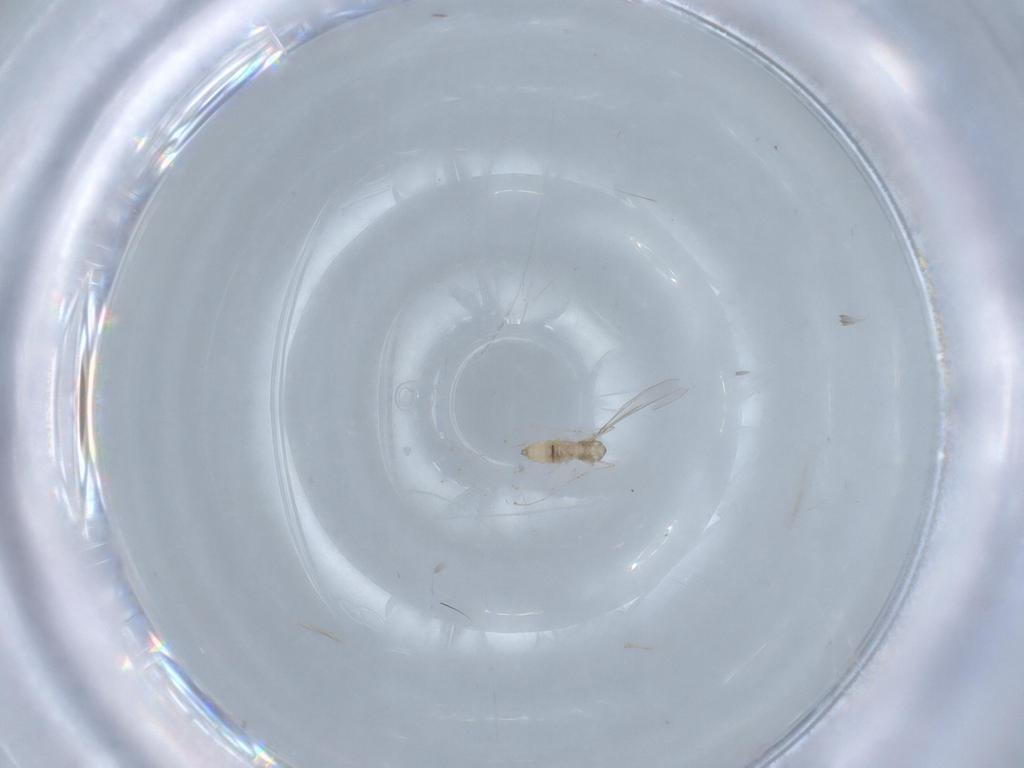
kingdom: Animalia
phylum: Arthropoda
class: Insecta
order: Diptera
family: Cecidomyiidae
